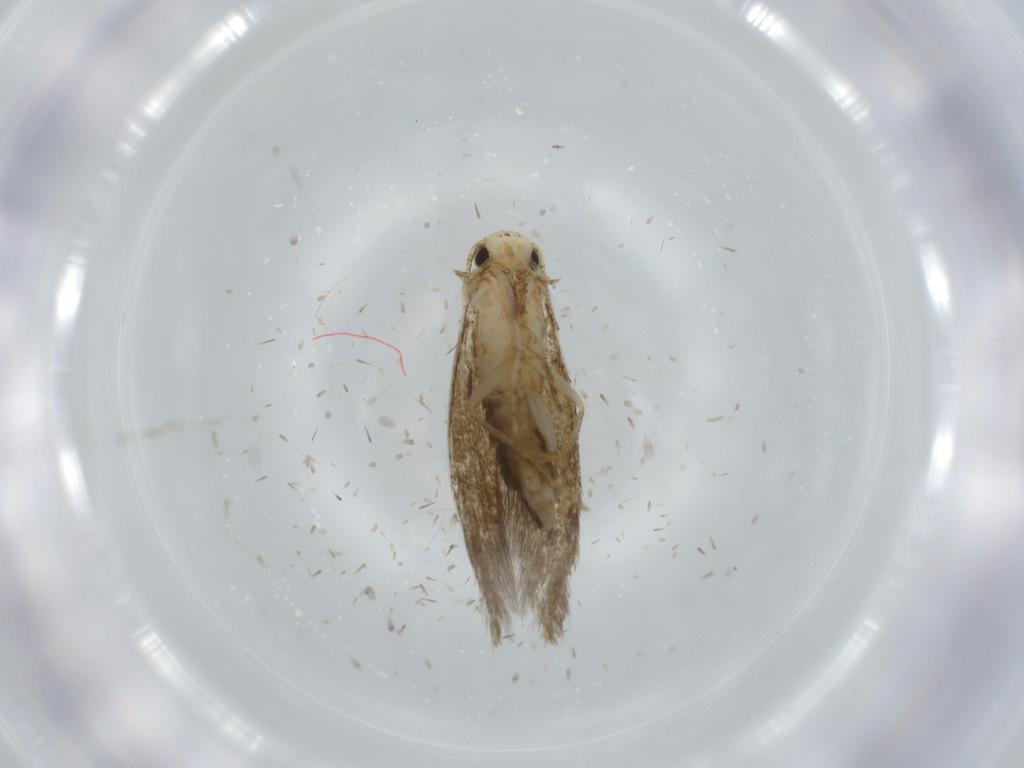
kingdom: Animalia
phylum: Arthropoda
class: Insecta
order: Lepidoptera
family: Tineidae
